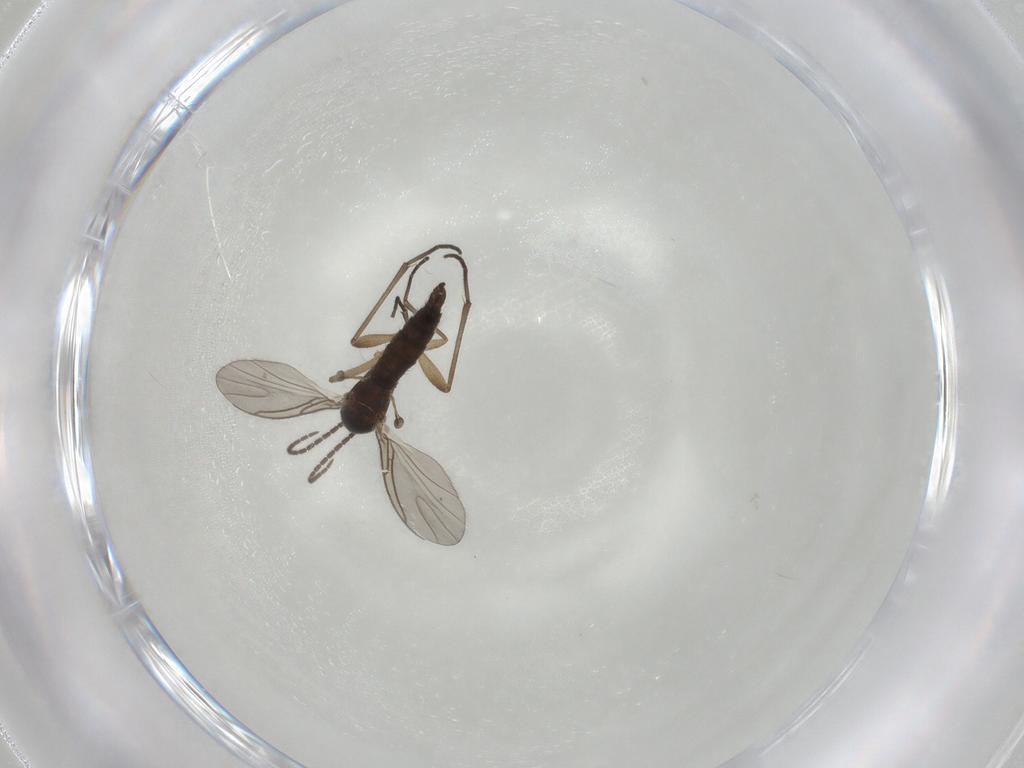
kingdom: Animalia
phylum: Arthropoda
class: Insecta
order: Diptera
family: Sciaridae
